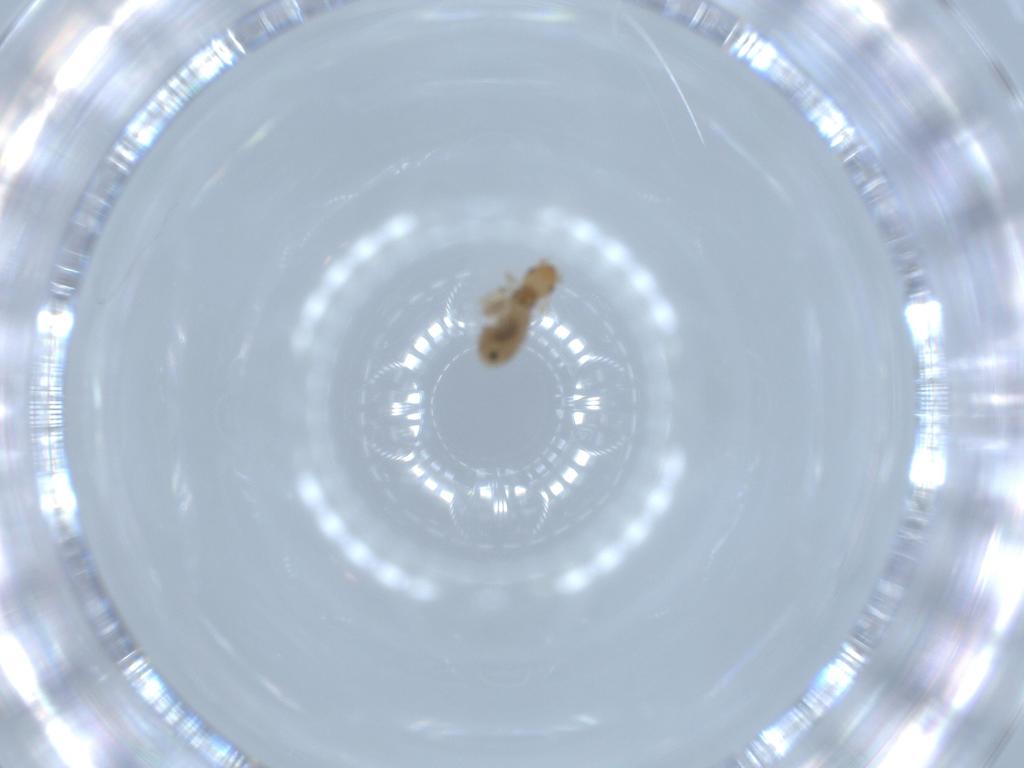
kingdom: Animalia
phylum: Arthropoda
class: Insecta
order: Psocodea
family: Liposcelididae
